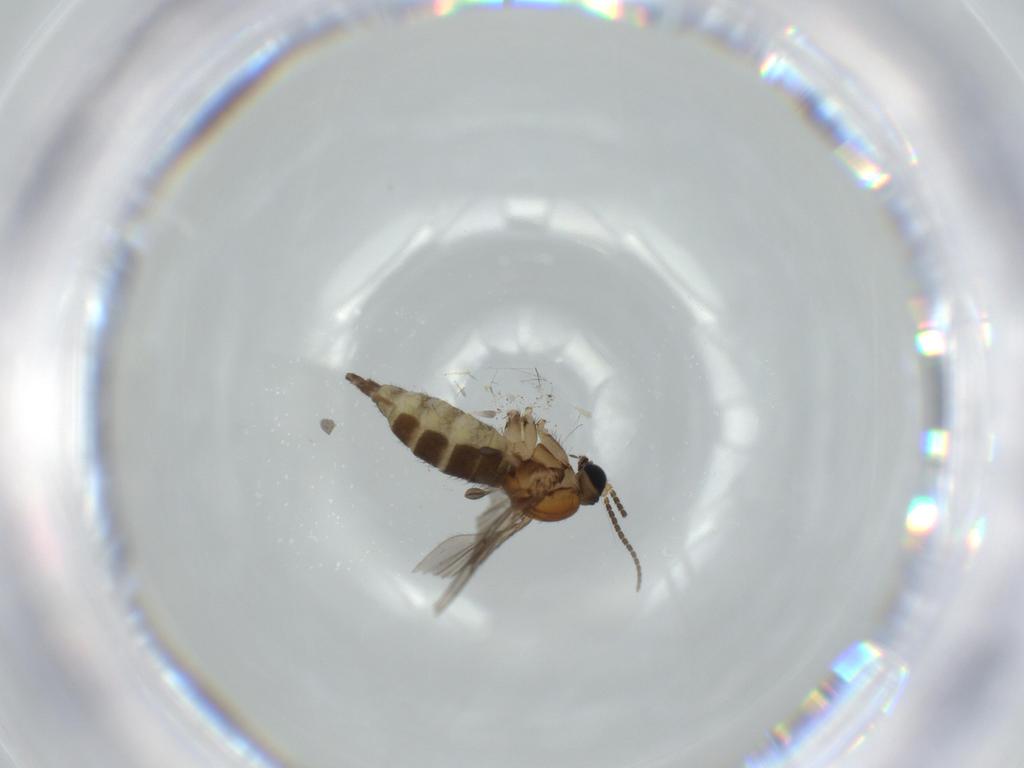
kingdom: Animalia
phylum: Arthropoda
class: Insecta
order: Diptera
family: Sciaridae
